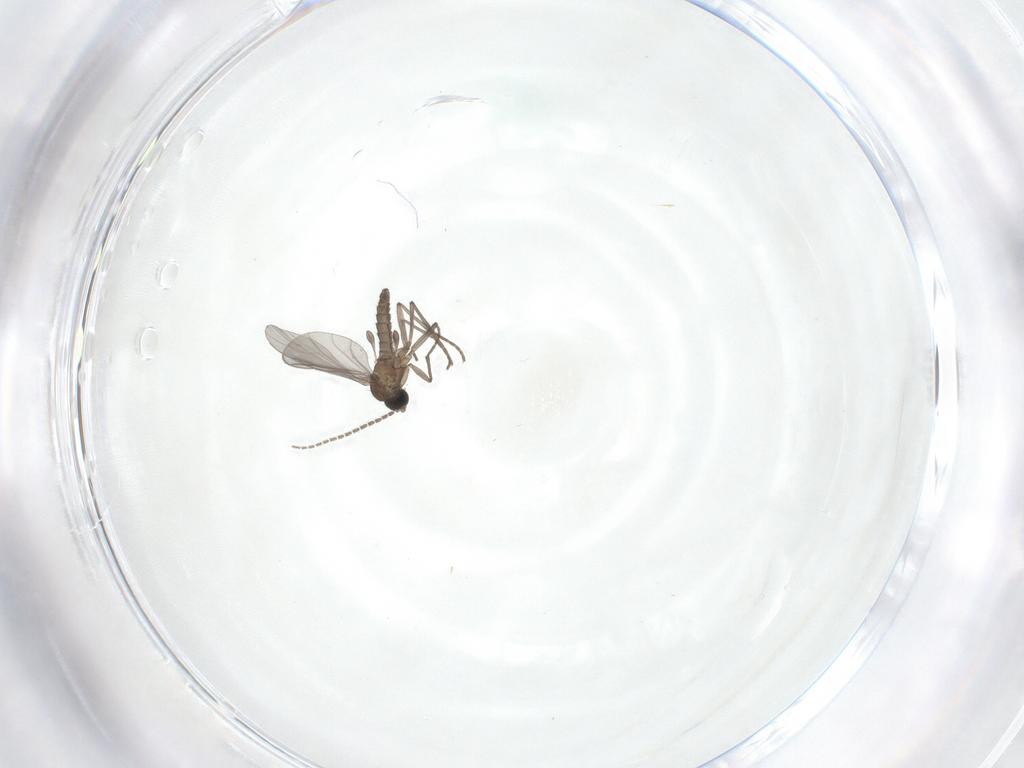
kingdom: Animalia
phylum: Arthropoda
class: Insecta
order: Diptera
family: Sciaridae
